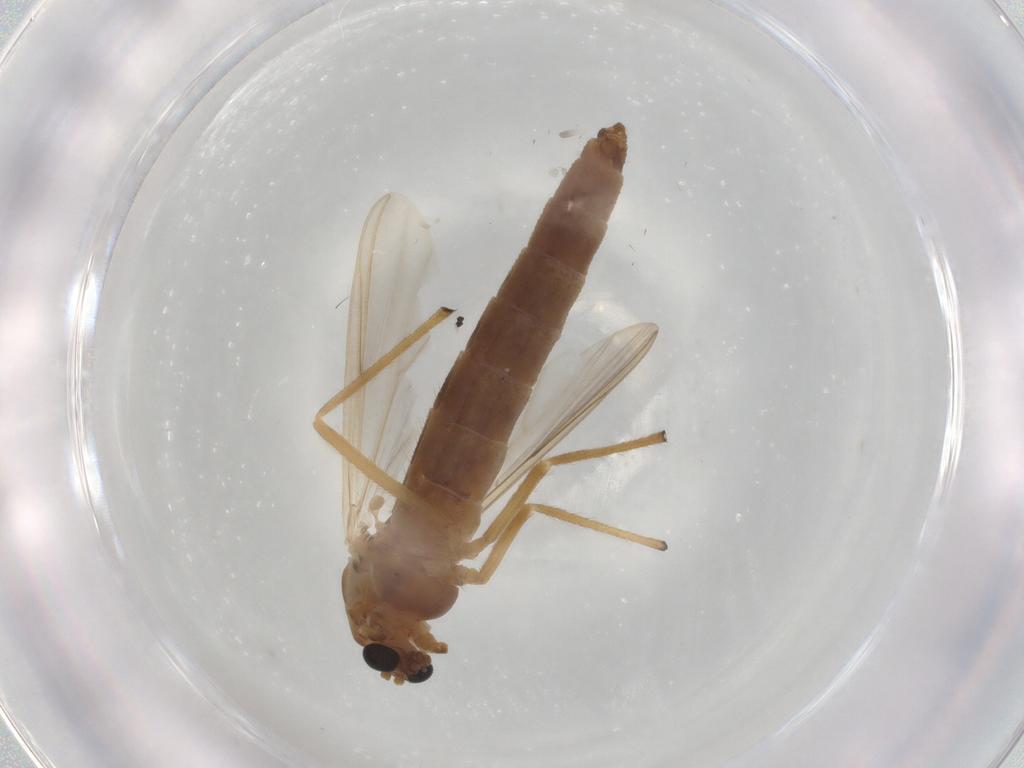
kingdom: Animalia
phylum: Arthropoda
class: Insecta
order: Diptera
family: Chironomidae
